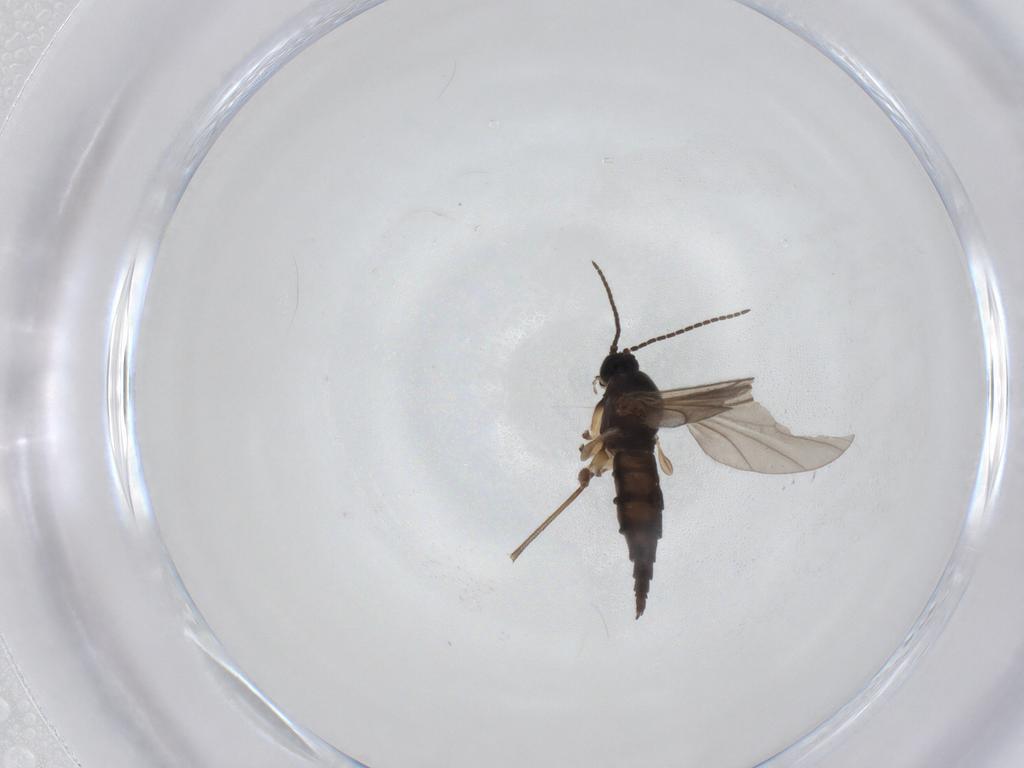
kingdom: Animalia
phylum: Arthropoda
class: Insecta
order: Diptera
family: Sciaridae
